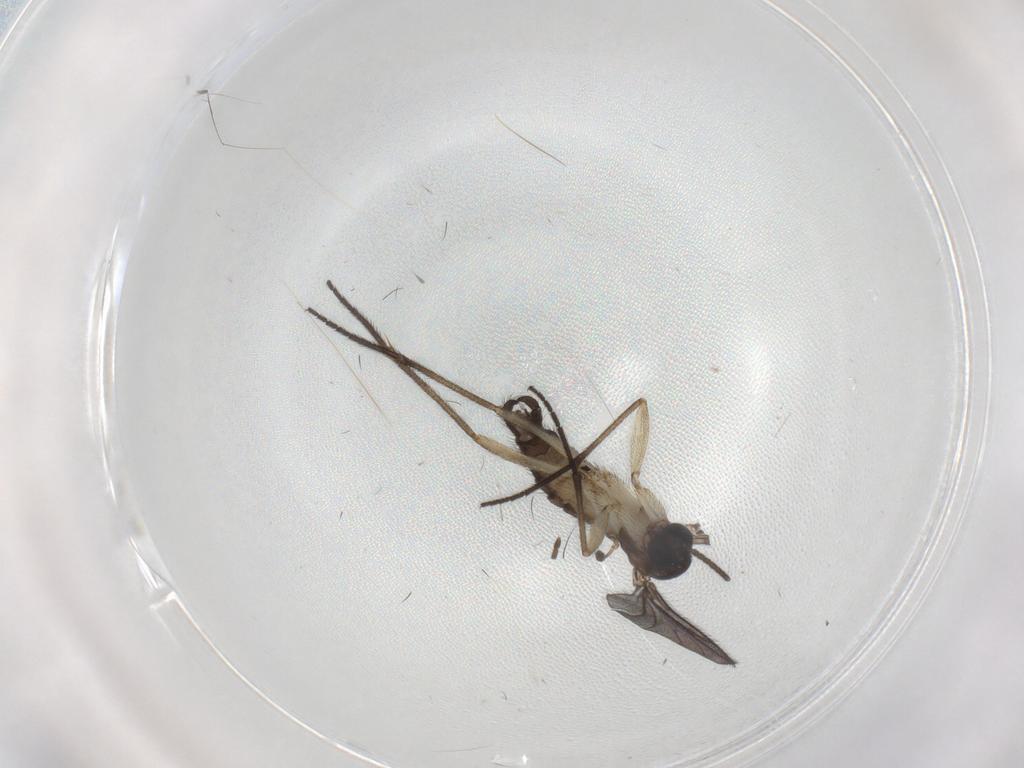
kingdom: Animalia
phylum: Arthropoda
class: Insecta
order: Diptera
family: Sciaridae
